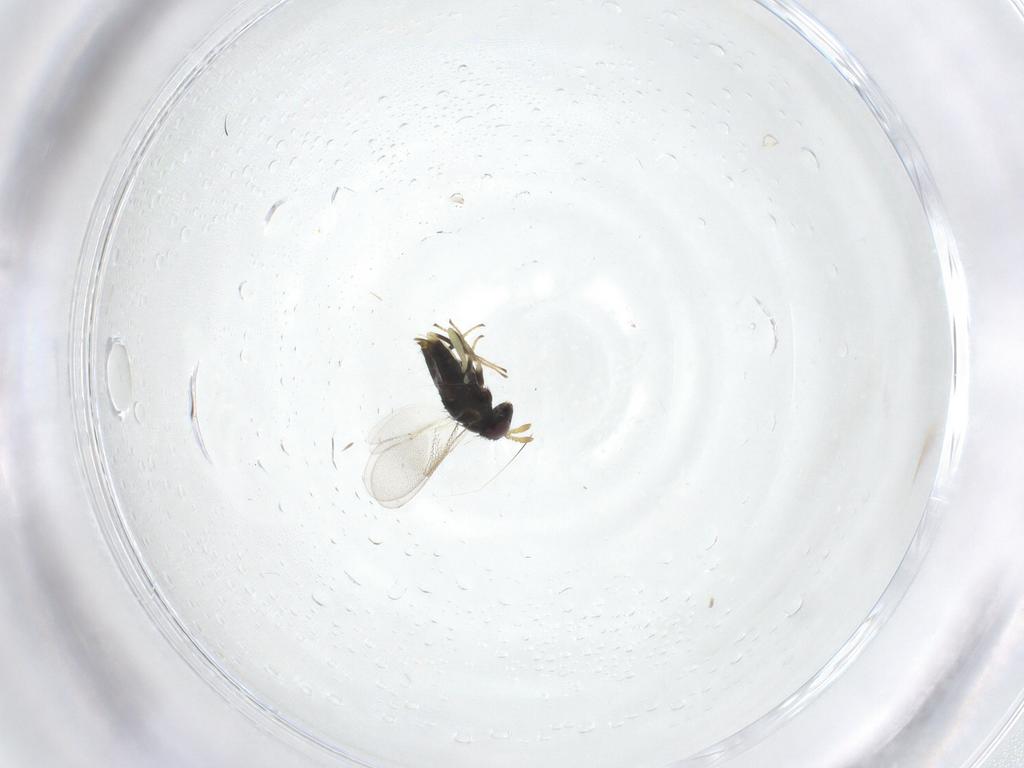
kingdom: Animalia
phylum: Arthropoda
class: Insecta
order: Hymenoptera
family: Aphelinidae
